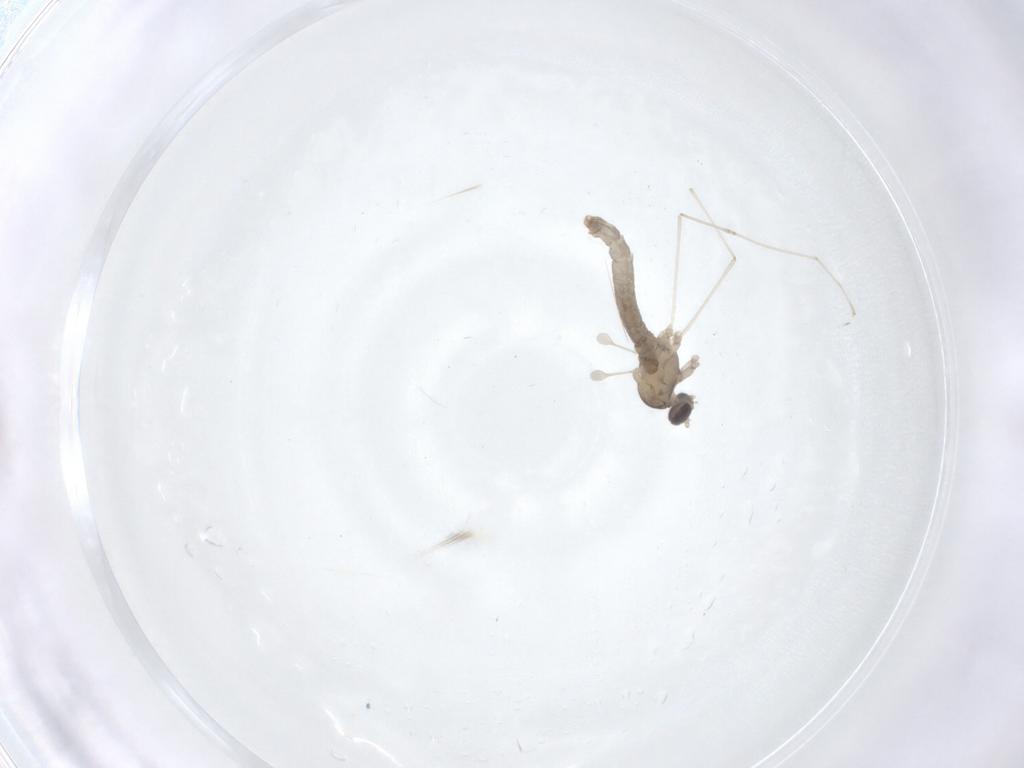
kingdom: Animalia
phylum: Arthropoda
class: Insecta
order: Diptera
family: Cecidomyiidae
